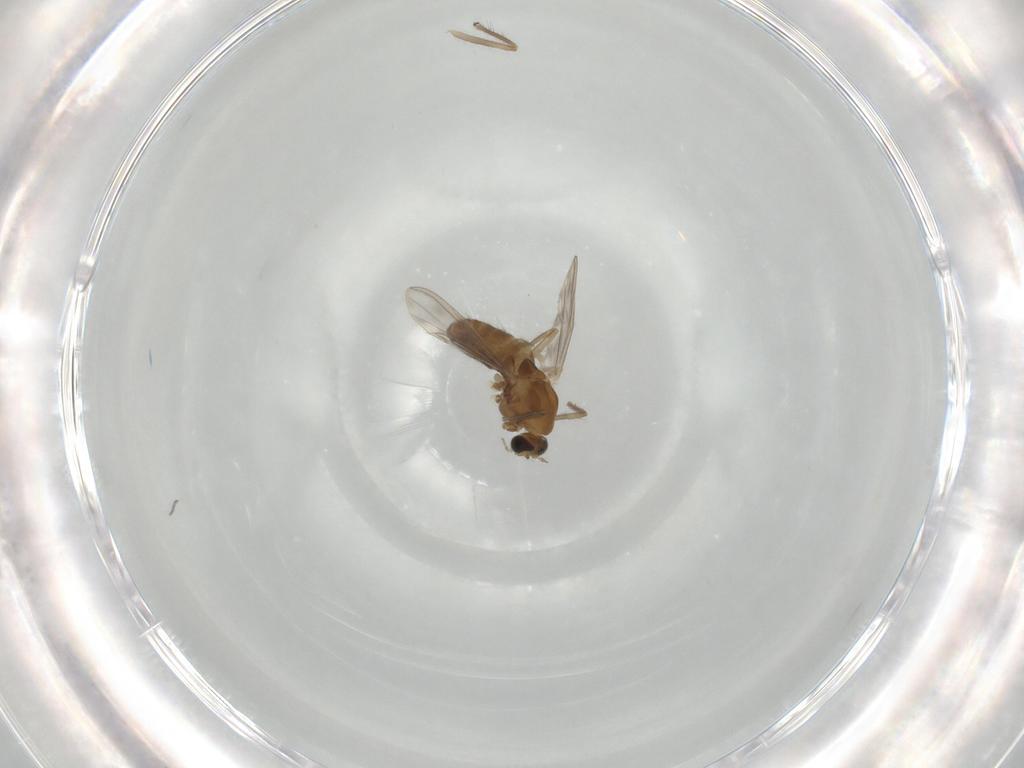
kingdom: Animalia
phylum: Arthropoda
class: Insecta
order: Diptera
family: Chironomidae
